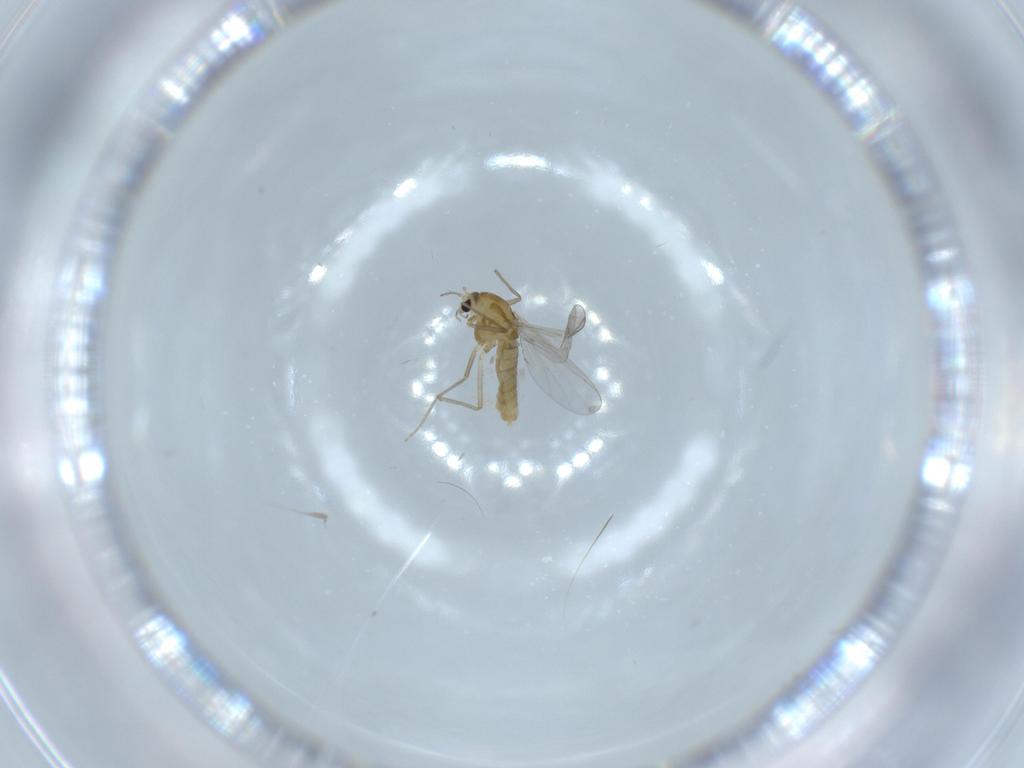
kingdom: Animalia
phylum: Arthropoda
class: Insecta
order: Diptera
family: Chironomidae
